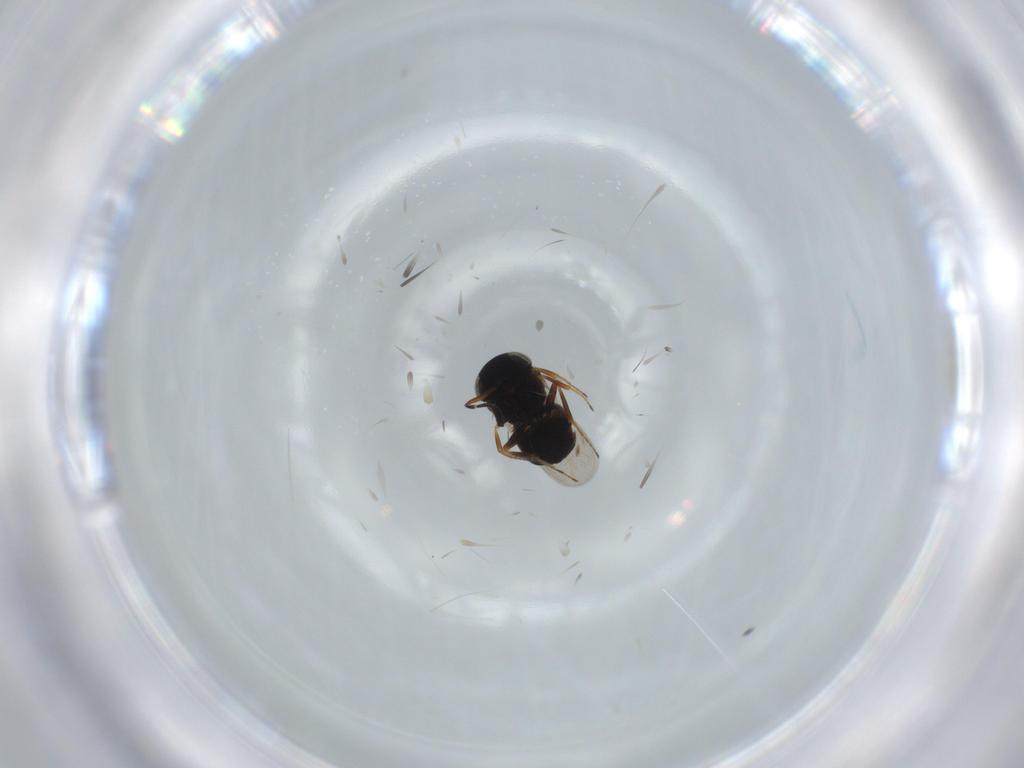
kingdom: Animalia
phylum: Arthropoda
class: Insecta
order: Hymenoptera
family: Scelionidae
